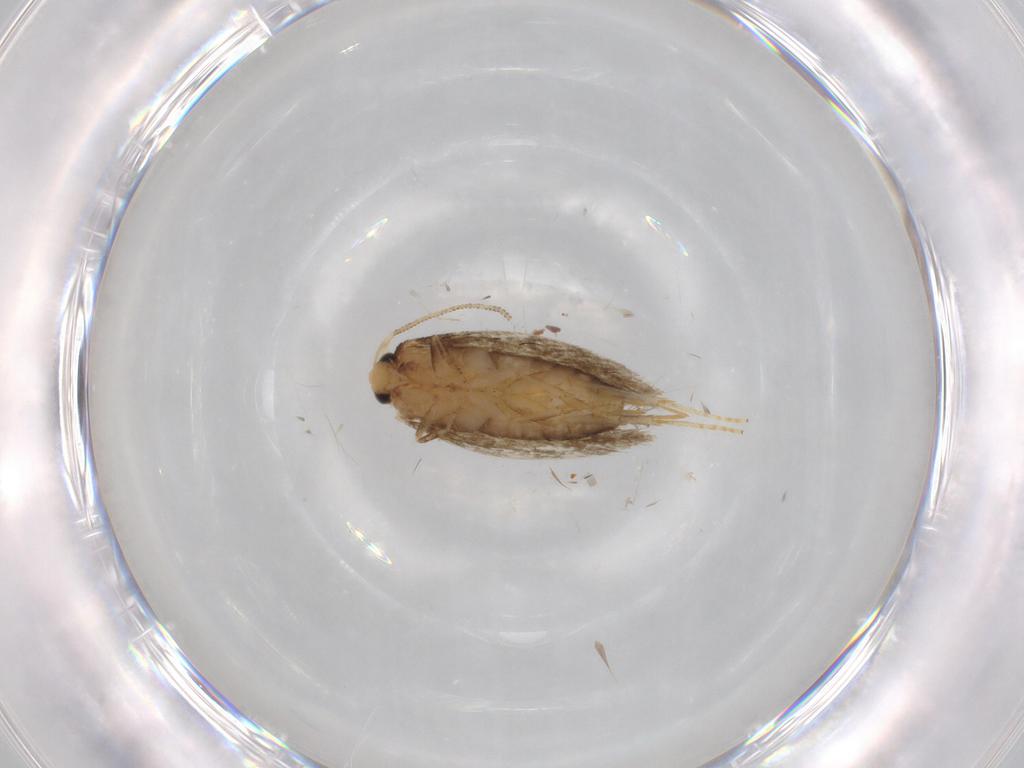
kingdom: Animalia
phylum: Arthropoda
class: Insecta
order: Lepidoptera
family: Nepticulidae
